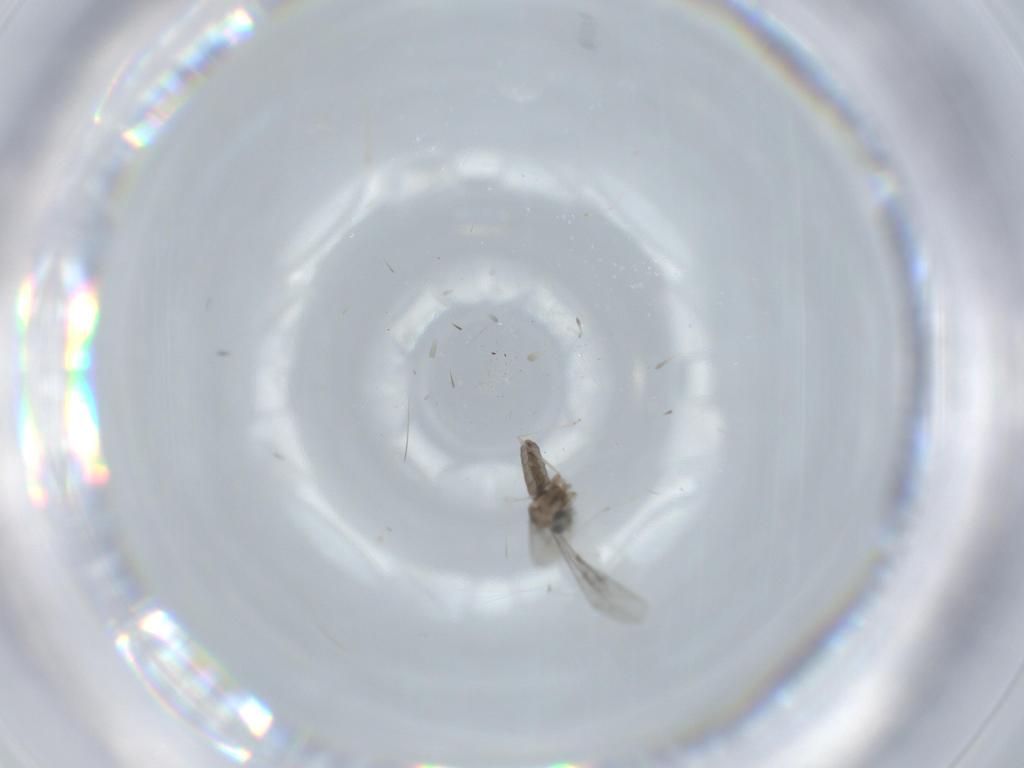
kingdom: Animalia
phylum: Arthropoda
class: Insecta
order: Diptera
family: Cecidomyiidae
